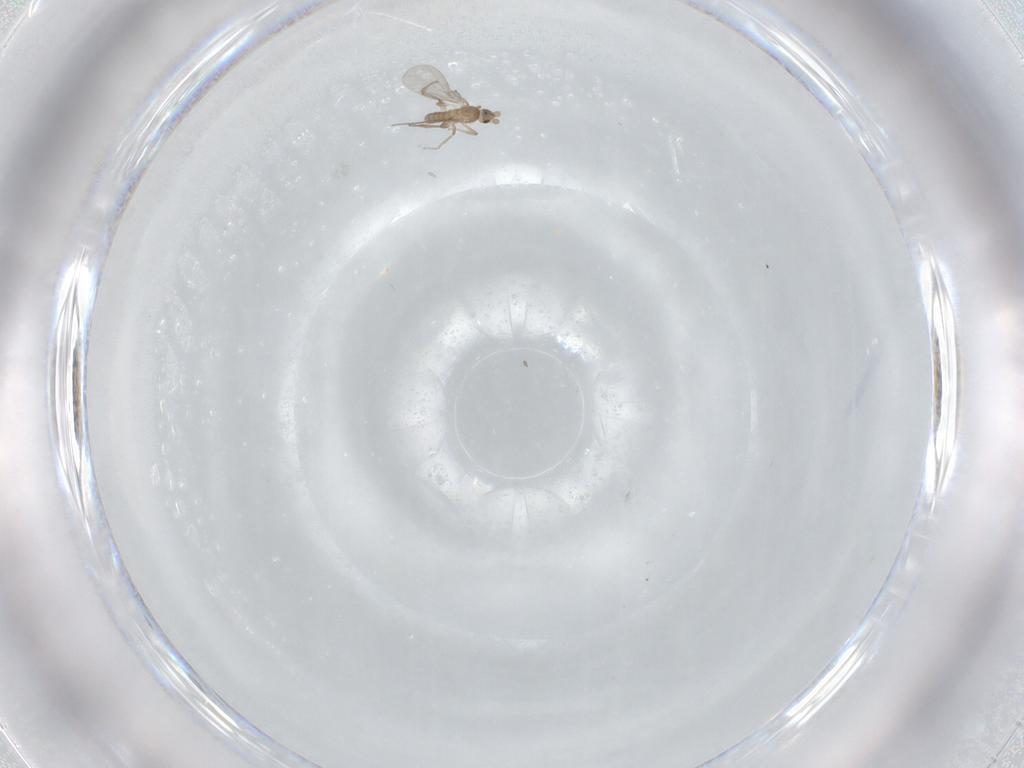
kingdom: Animalia
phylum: Arthropoda
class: Insecta
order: Diptera
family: Phoridae
